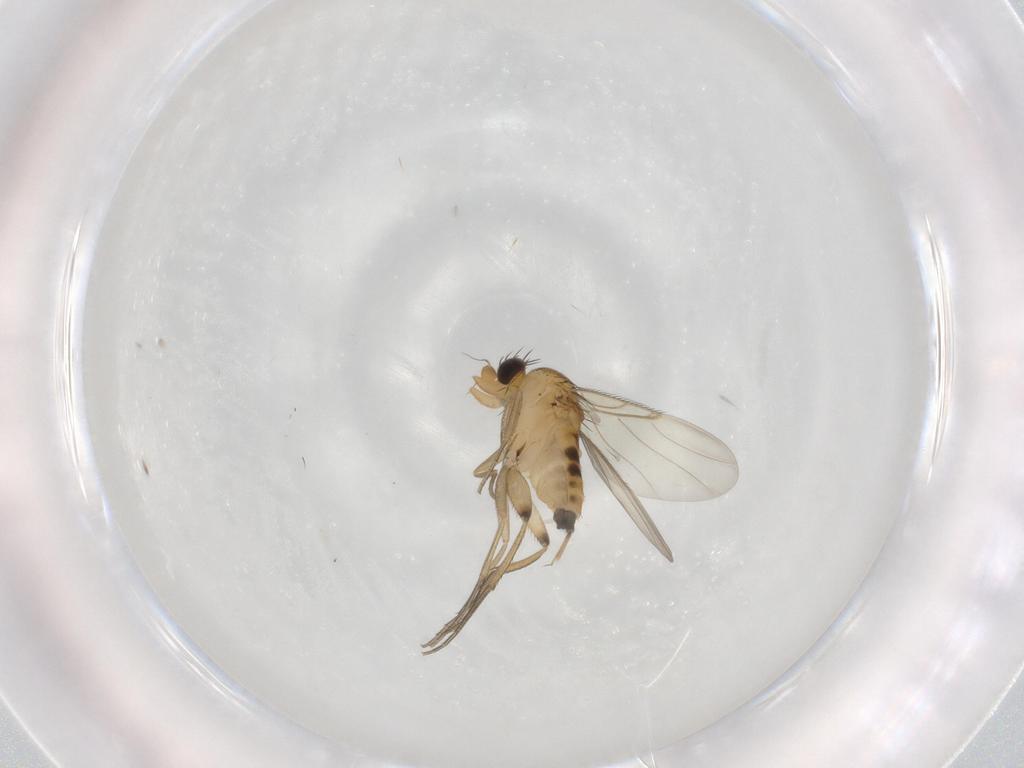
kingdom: Animalia
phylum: Arthropoda
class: Insecta
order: Diptera
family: Phoridae
